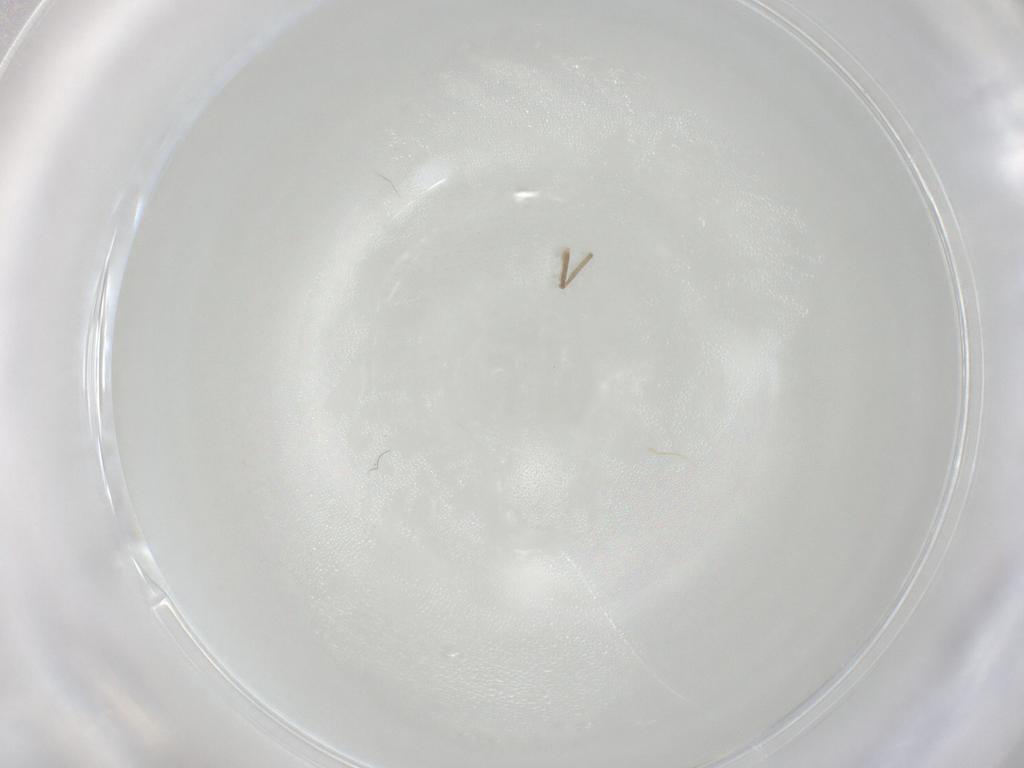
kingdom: Animalia
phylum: Arthropoda
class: Insecta
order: Diptera
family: Chironomidae
